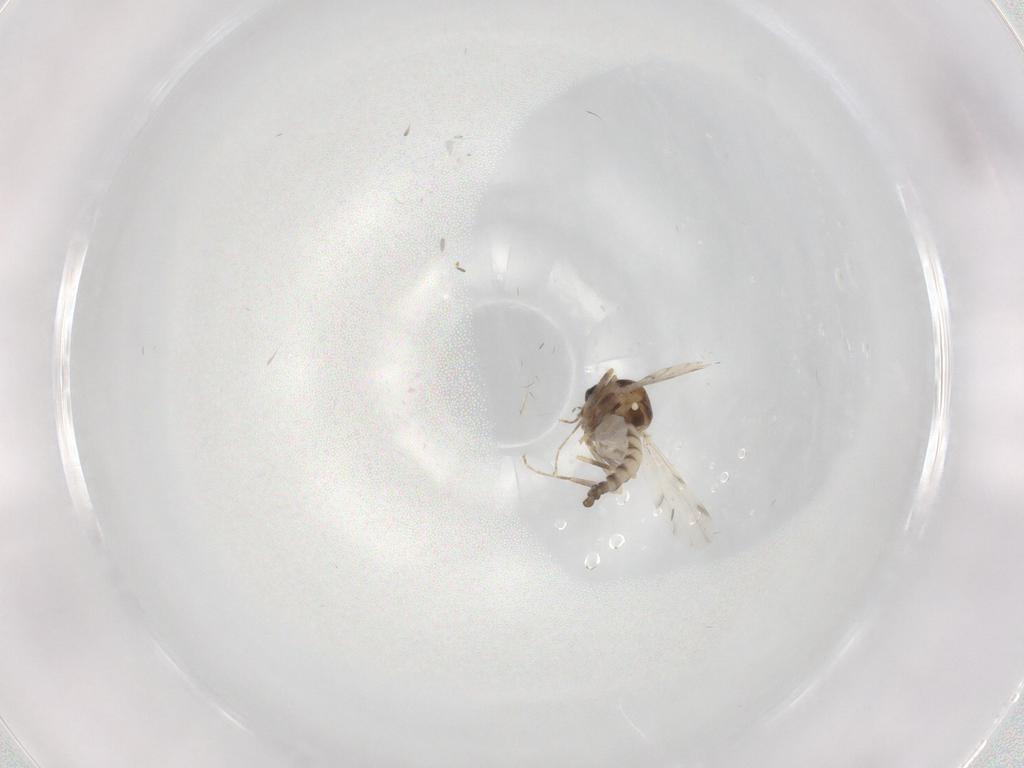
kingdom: Animalia
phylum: Arthropoda
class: Insecta
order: Diptera
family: Ceratopogonidae
